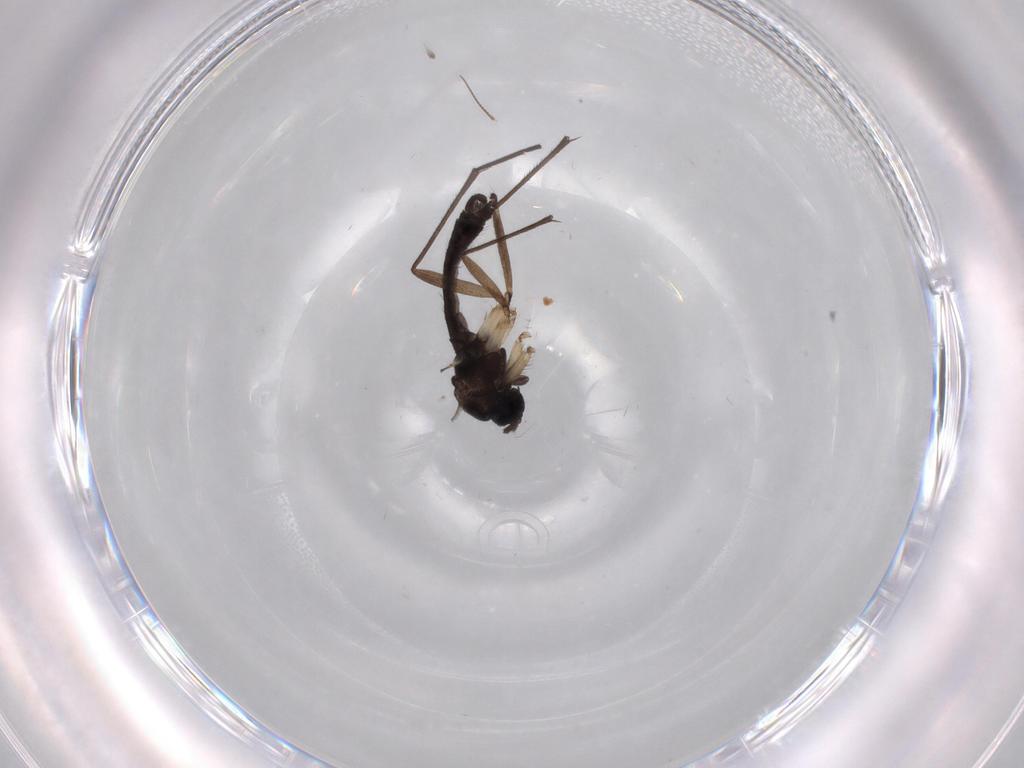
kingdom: Animalia
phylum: Arthropoda
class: Insecta
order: Diptera
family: Sciaridae
